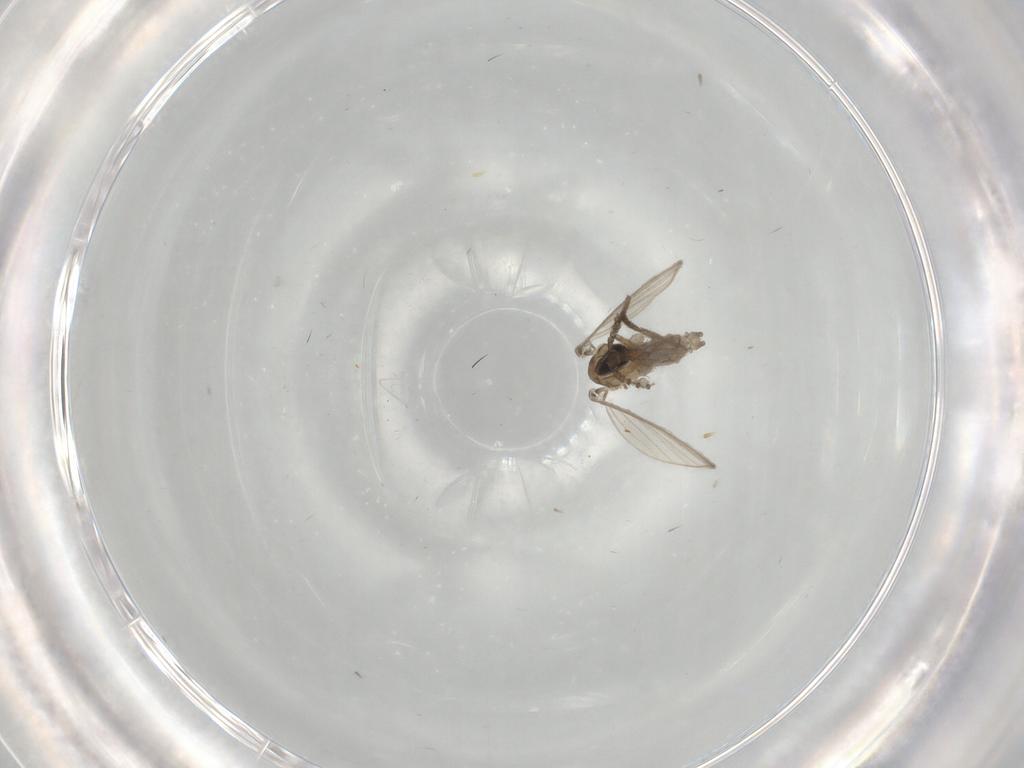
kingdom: Animalia
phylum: Arthropoda
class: Insecta
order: Diptera
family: Psychodidae
